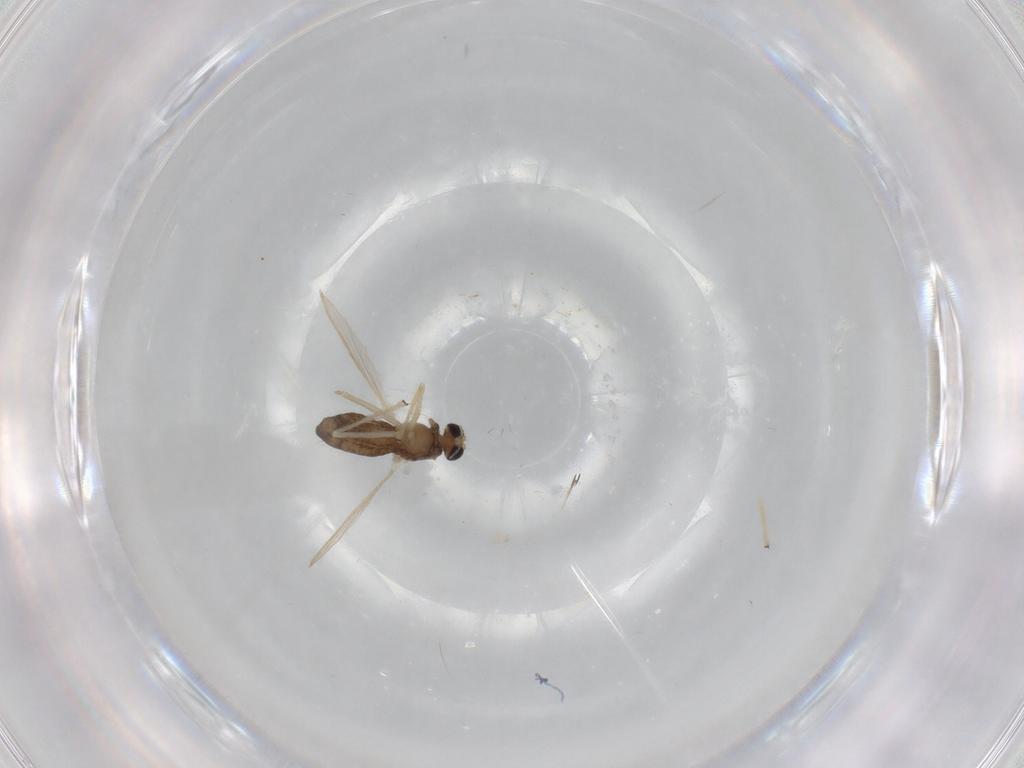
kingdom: Animalia
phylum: Arthropoda
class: Insecta
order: Diptera
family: Chironomidae
